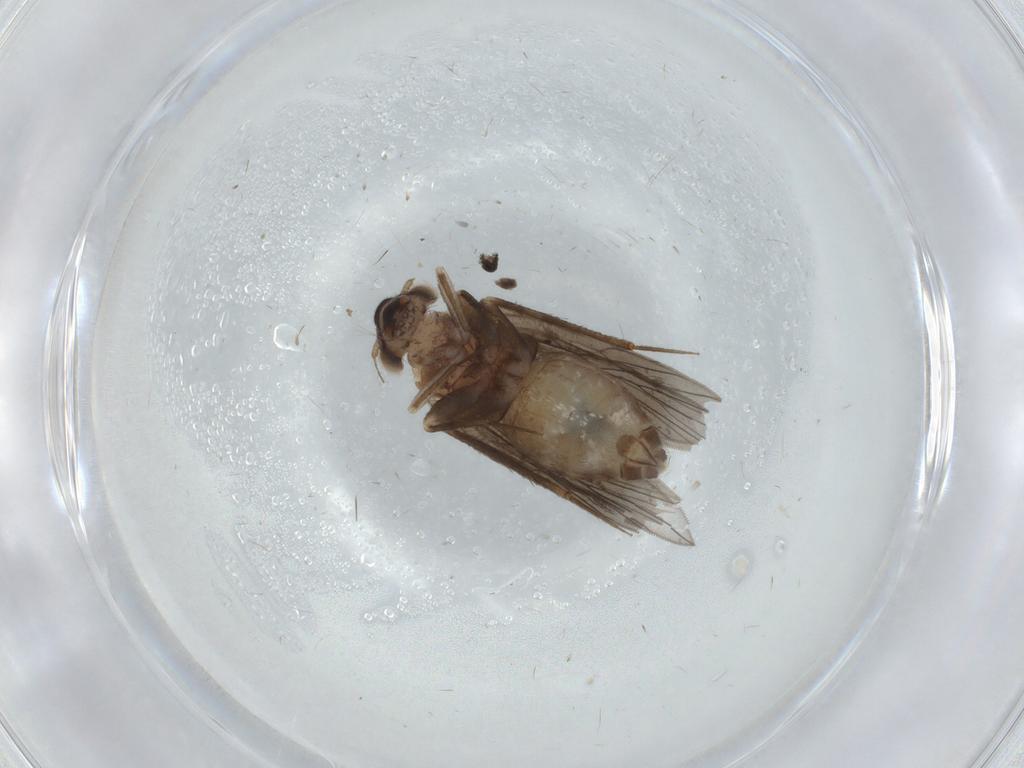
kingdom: Animalia
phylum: Arthropoda
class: Insecta
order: Psocodea
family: Lepidopsocidae
